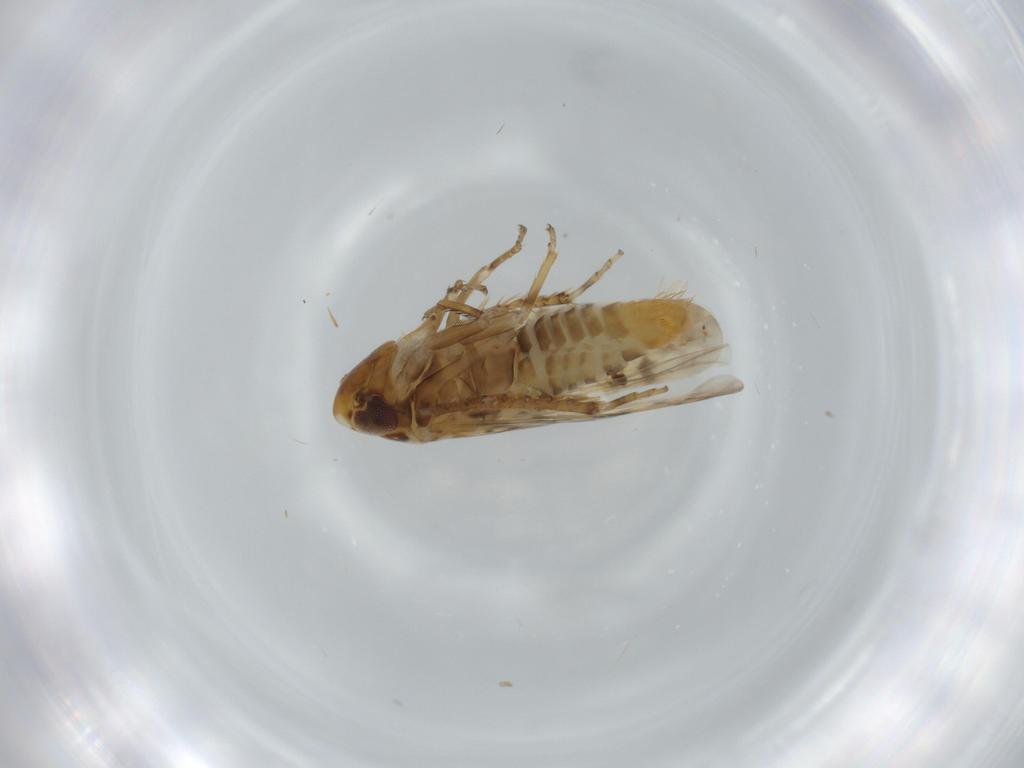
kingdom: Animalia
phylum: Arthropoda
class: Insecta
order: Hemiptera
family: Cicadellidae
